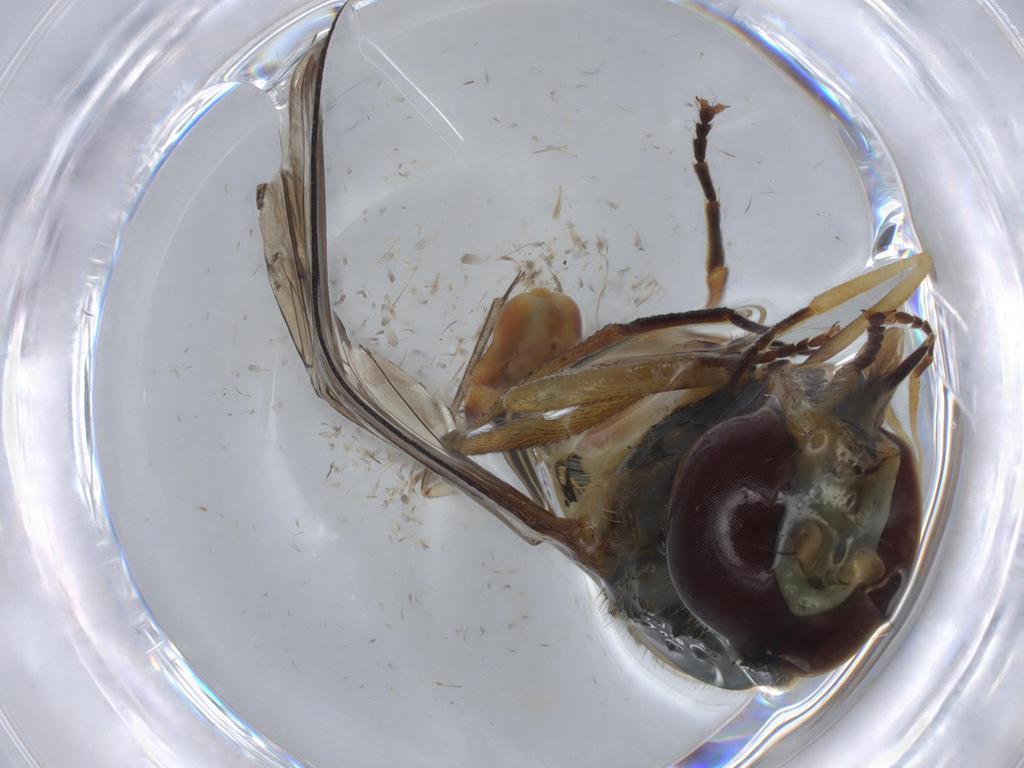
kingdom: Animalia
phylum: Arthropoda
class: Insecta
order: Diptera
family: Syrphidae
